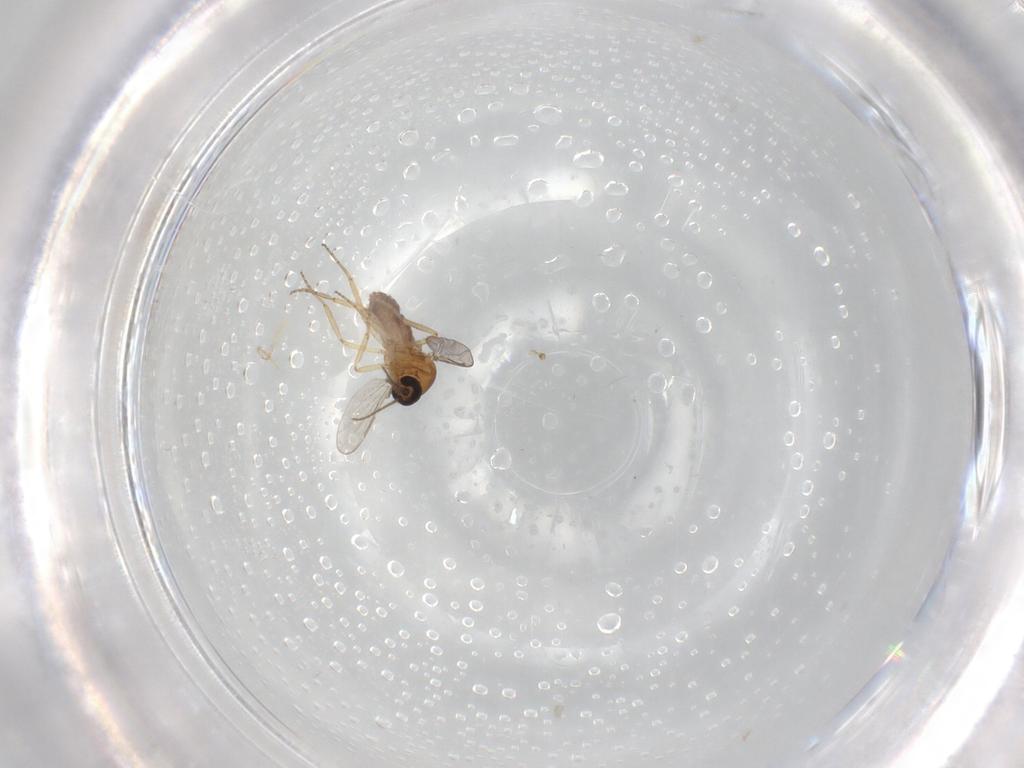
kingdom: Animalia
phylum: Arthropoda
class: Insecta
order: Diptera
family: Ceratopogonidae
